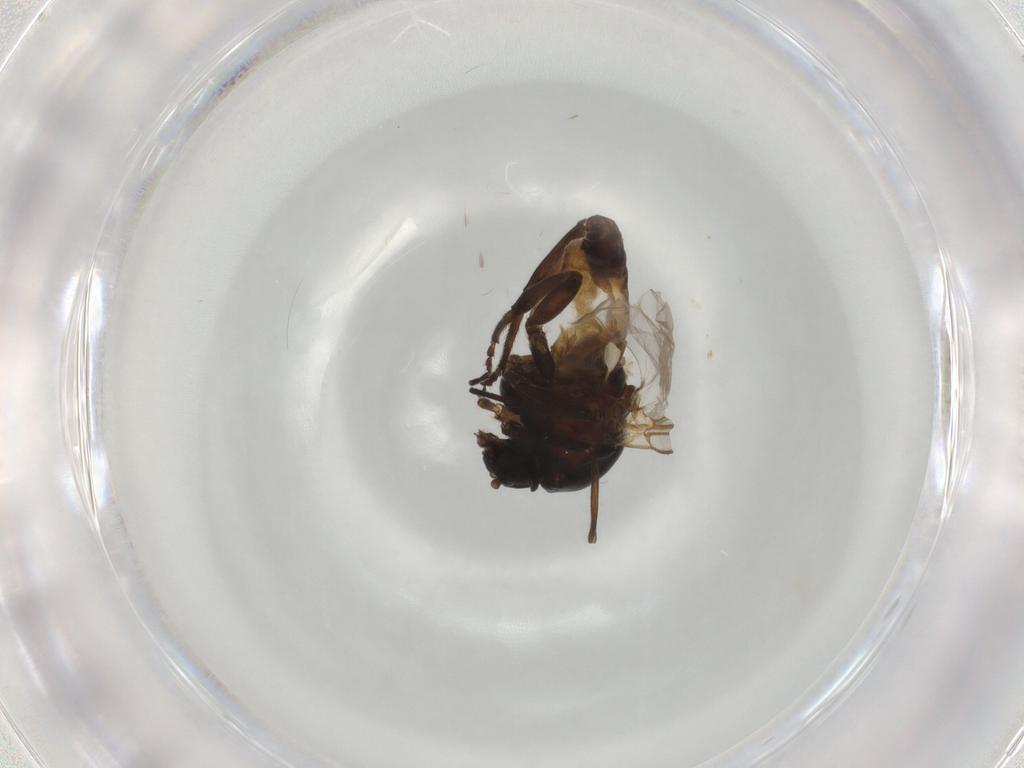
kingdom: Animalia
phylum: Arthropoda
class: Insecta
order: Diptera
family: Simuliidae
